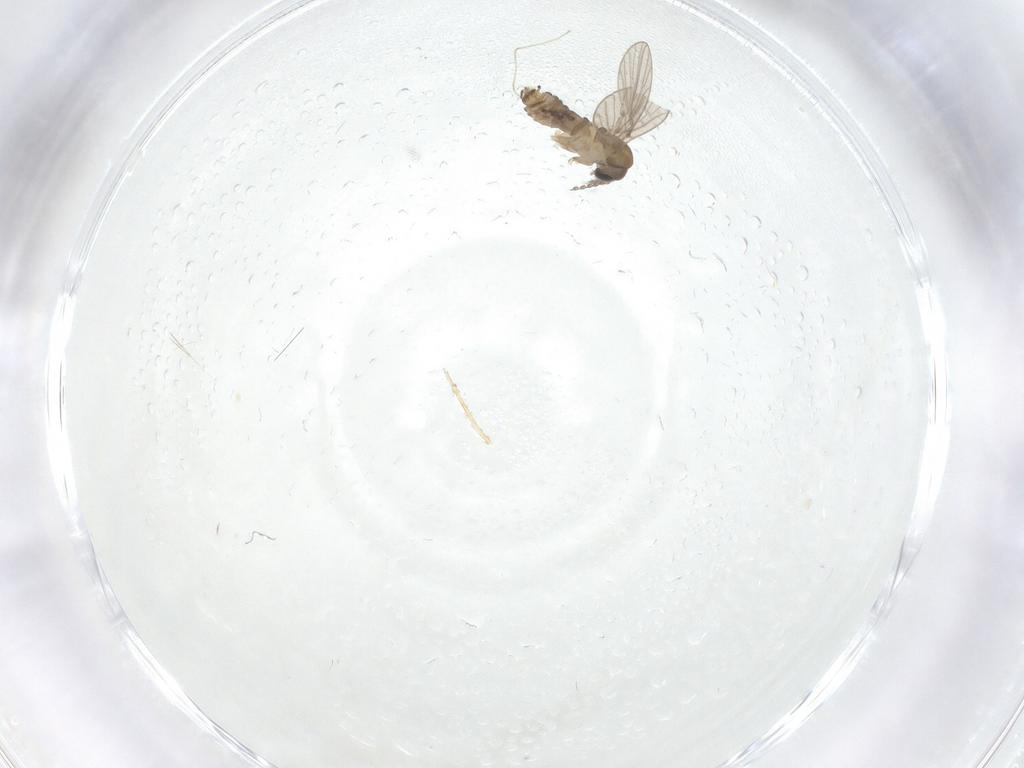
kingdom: Animalia
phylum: Arthropoda
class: Insecta
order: Diptera
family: Psychodidae
